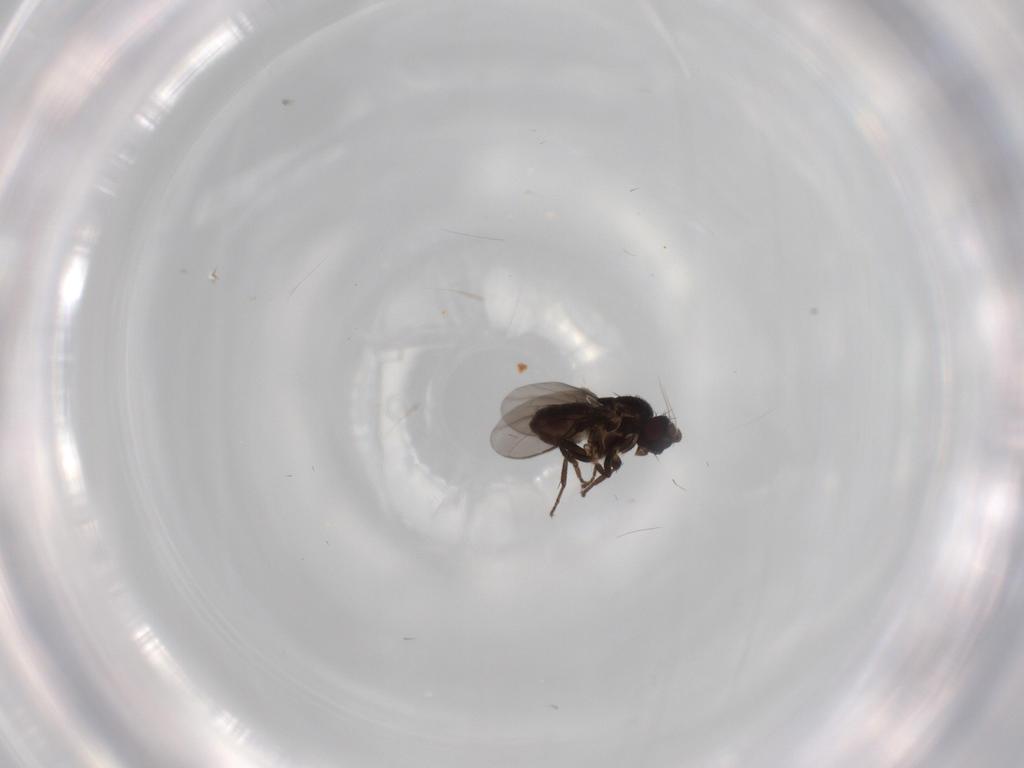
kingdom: Animalia
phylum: Arthropoda
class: Insecta
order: Diptera
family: Sphaeroceridae
